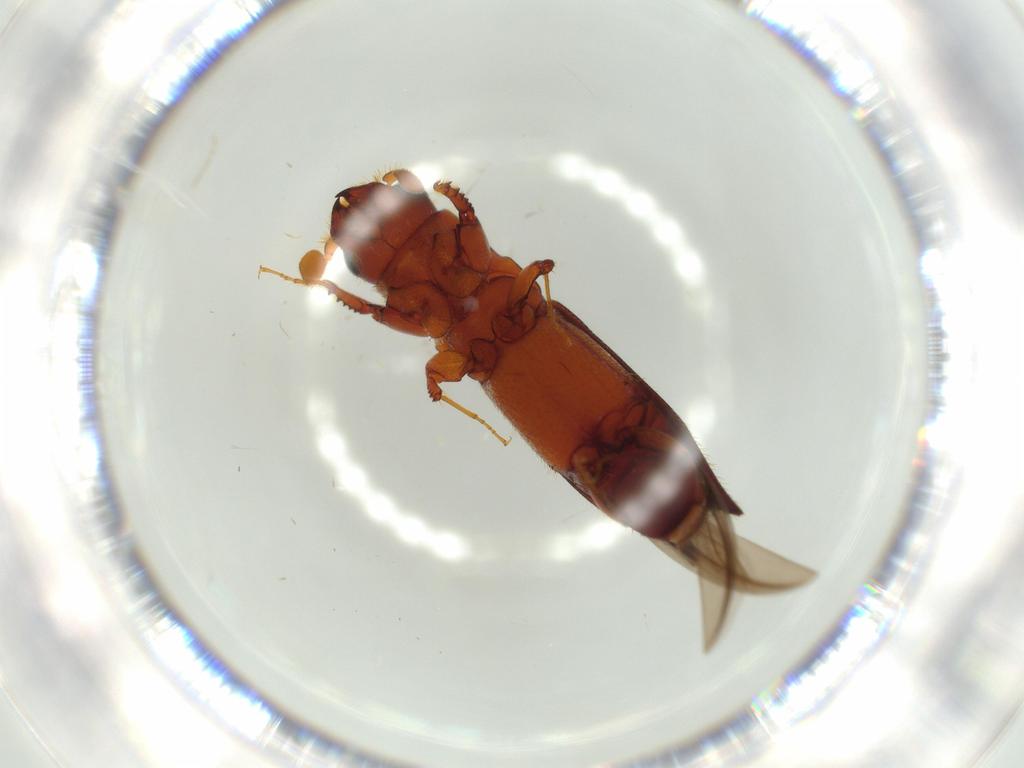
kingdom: Animalia
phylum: Arthropoda
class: Insecta
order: Coleoptera
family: Curculionidae
